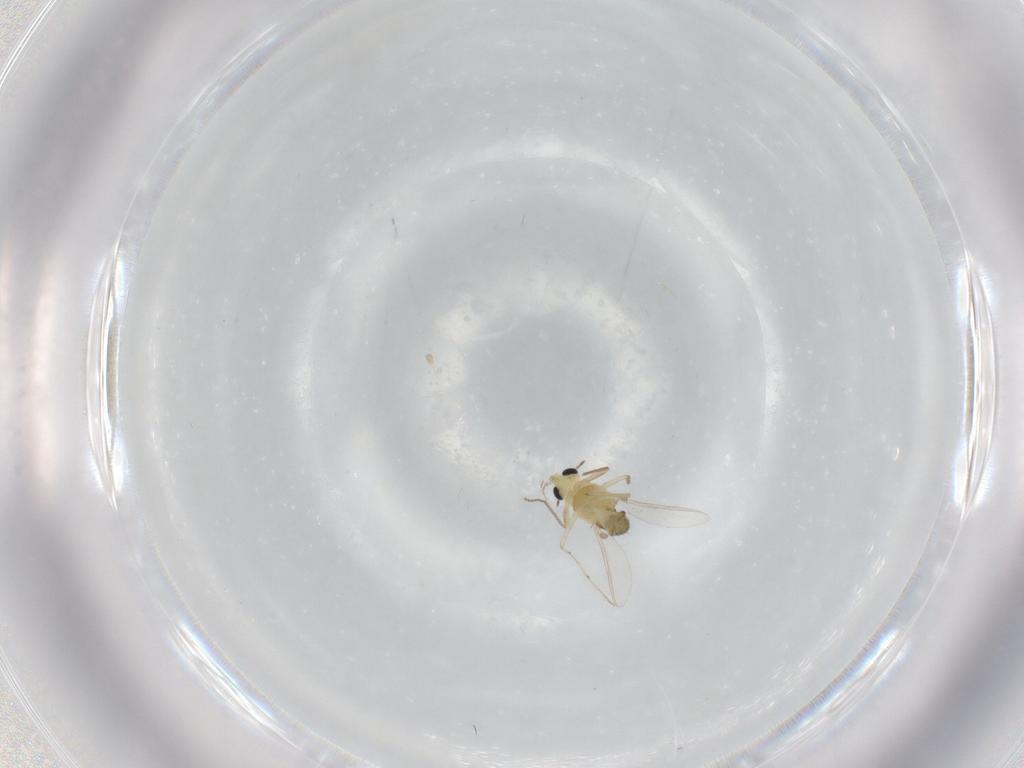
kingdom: Animalia
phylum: Arthropoda
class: Insecta
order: Diptera
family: Chironomidae
